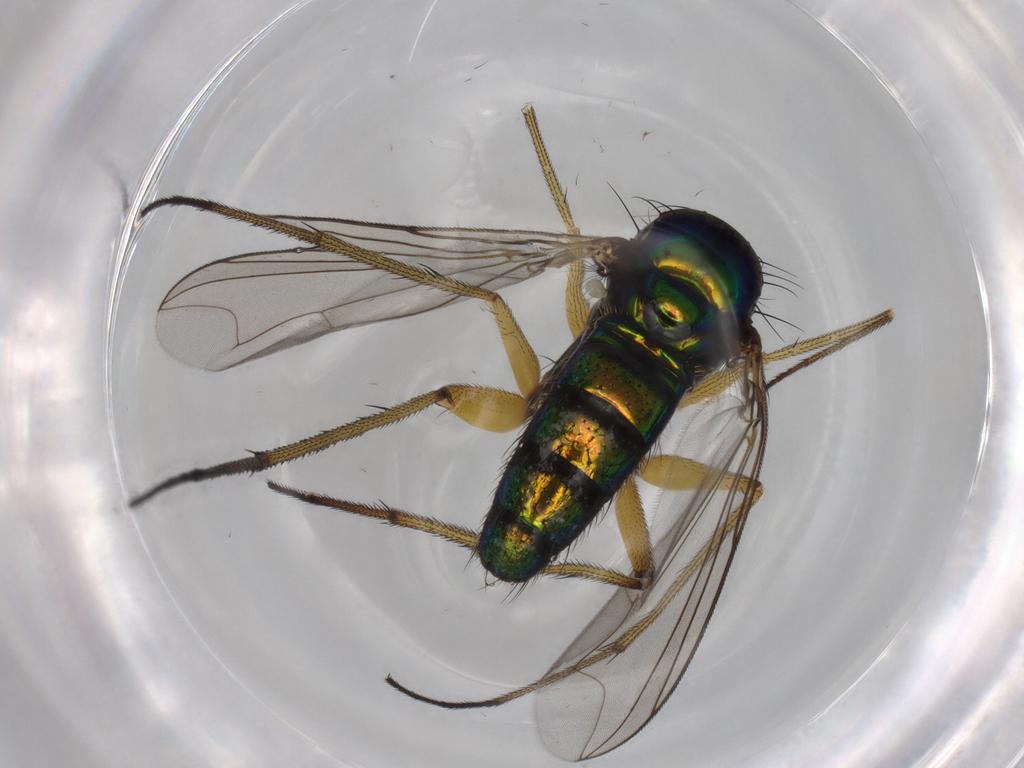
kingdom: Animalia
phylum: Arthropoda
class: Insecta
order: Diptera
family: Dolichopodidae
